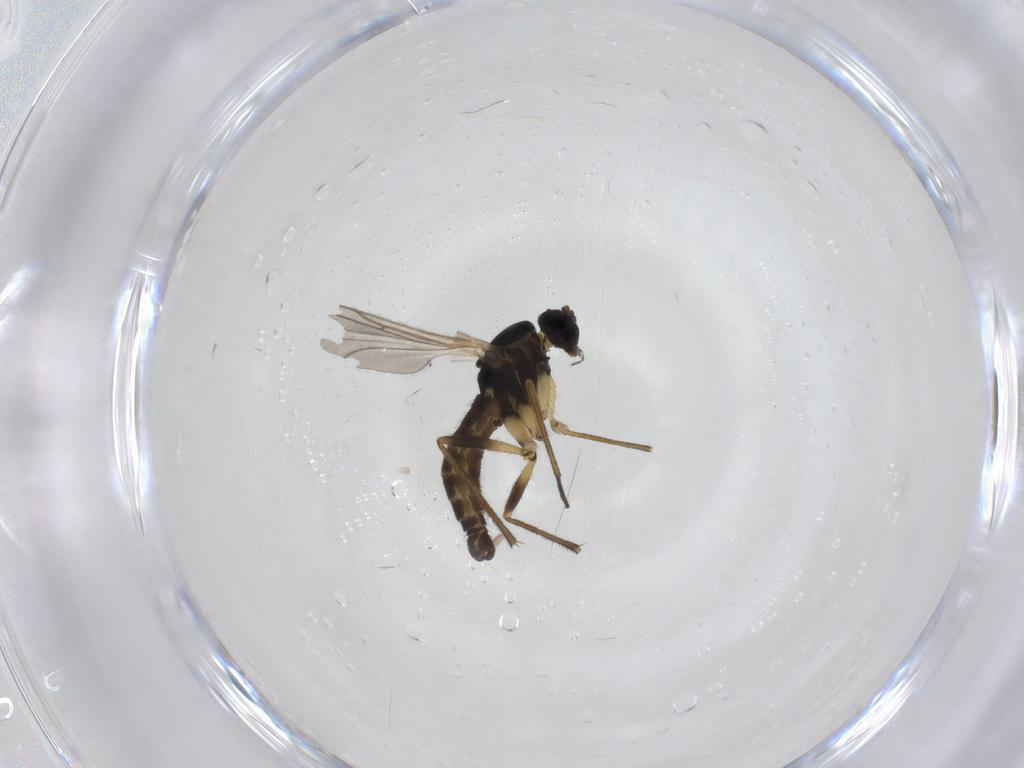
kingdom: Animalia
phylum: Arthropoda
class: Insecta
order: Diptera
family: Sciaridae
